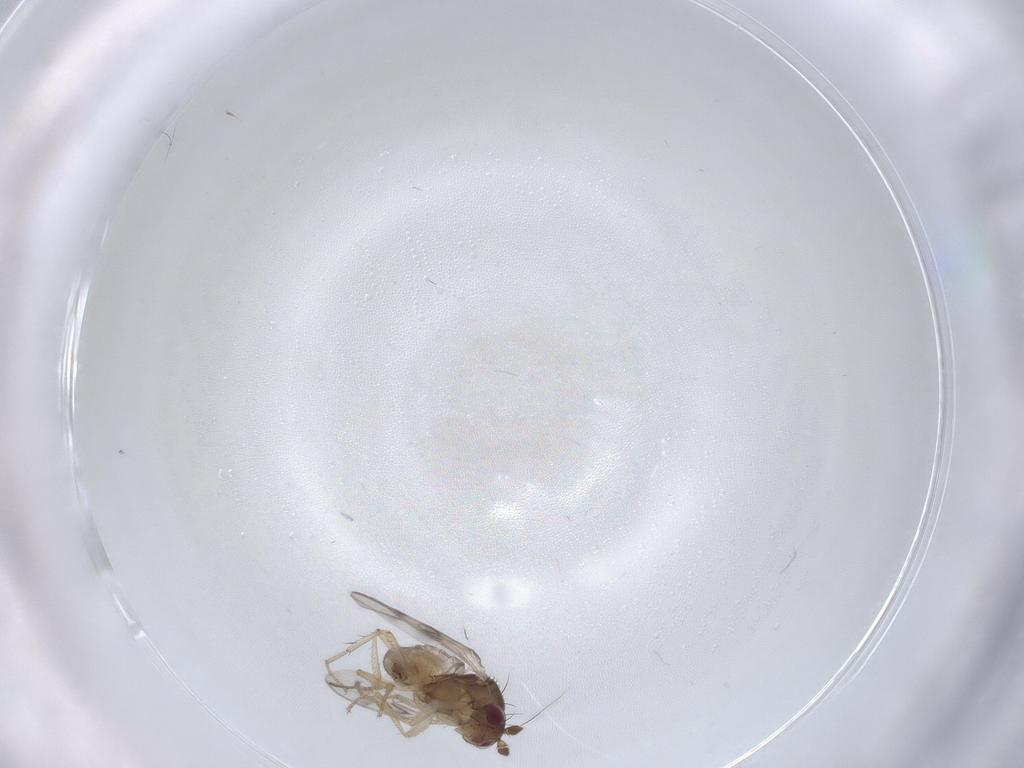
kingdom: Animalia
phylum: Arthropoda
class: Insecta
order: Diptera
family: Sphaeroceridae
